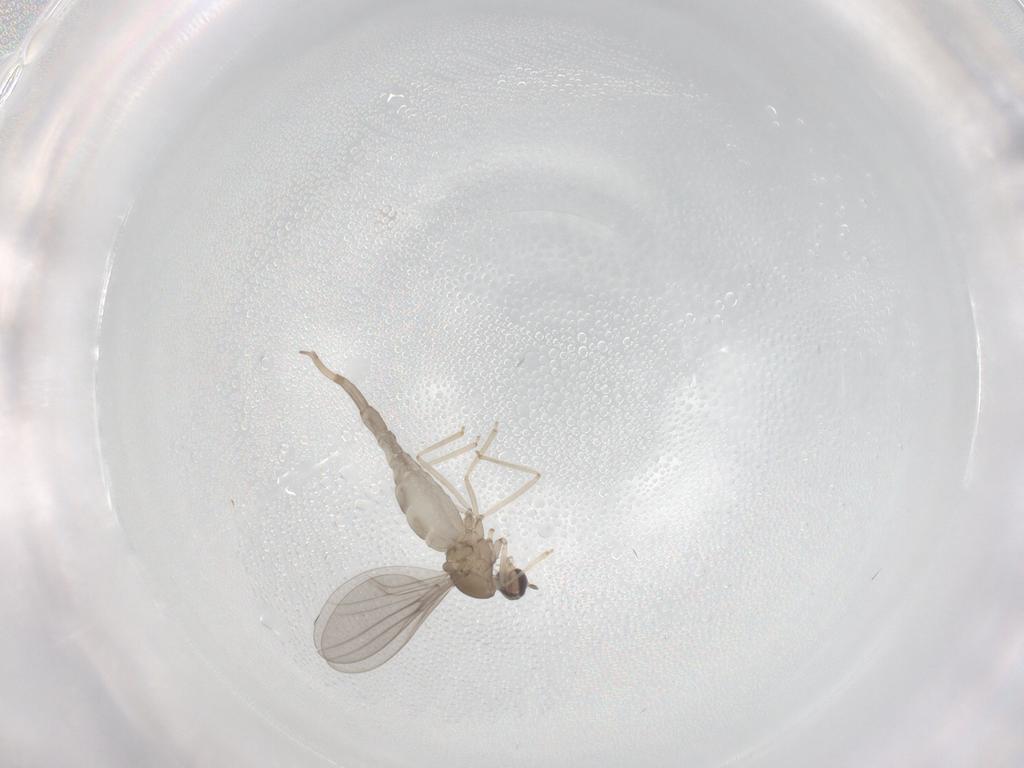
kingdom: Animalia
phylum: Arthropoda
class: Insecta
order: Diptera
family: Cecidomyiidae
